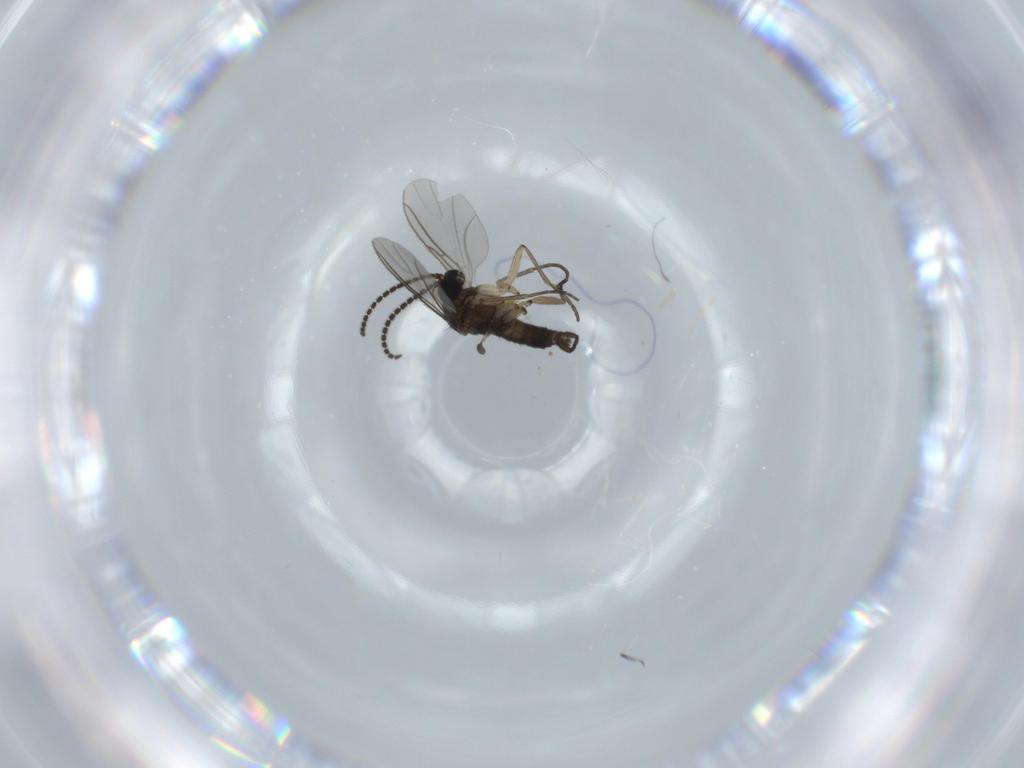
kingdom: Animalia
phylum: Arthropoda
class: Insecta
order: Diptera
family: Sciaridae
